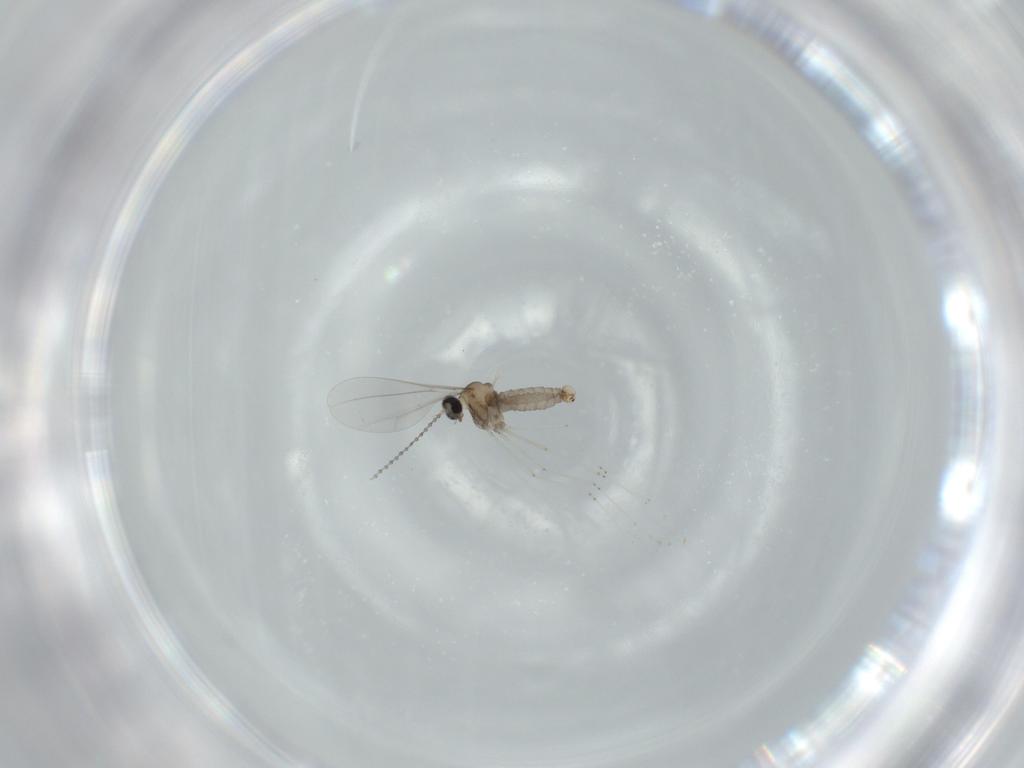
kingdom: Animalia
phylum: Arthropoda
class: Insecta
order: Diptera
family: Cecidomyiidae
